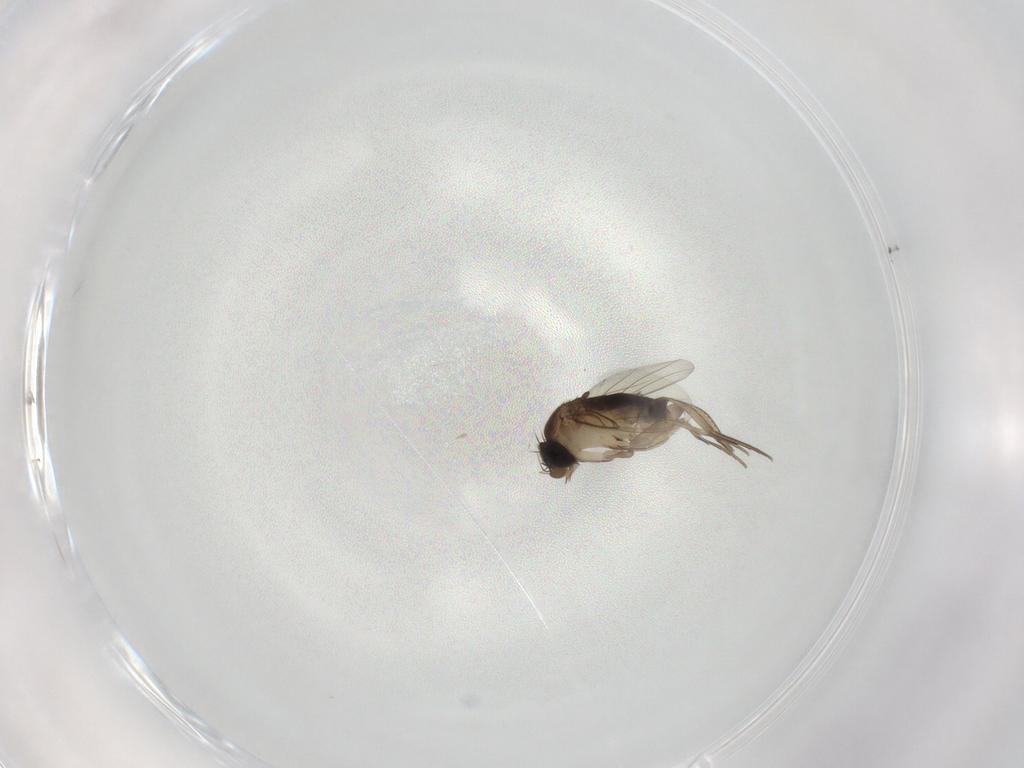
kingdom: Animalia
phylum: Arthropoda
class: Insecta
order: Diptera
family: Phoridae
